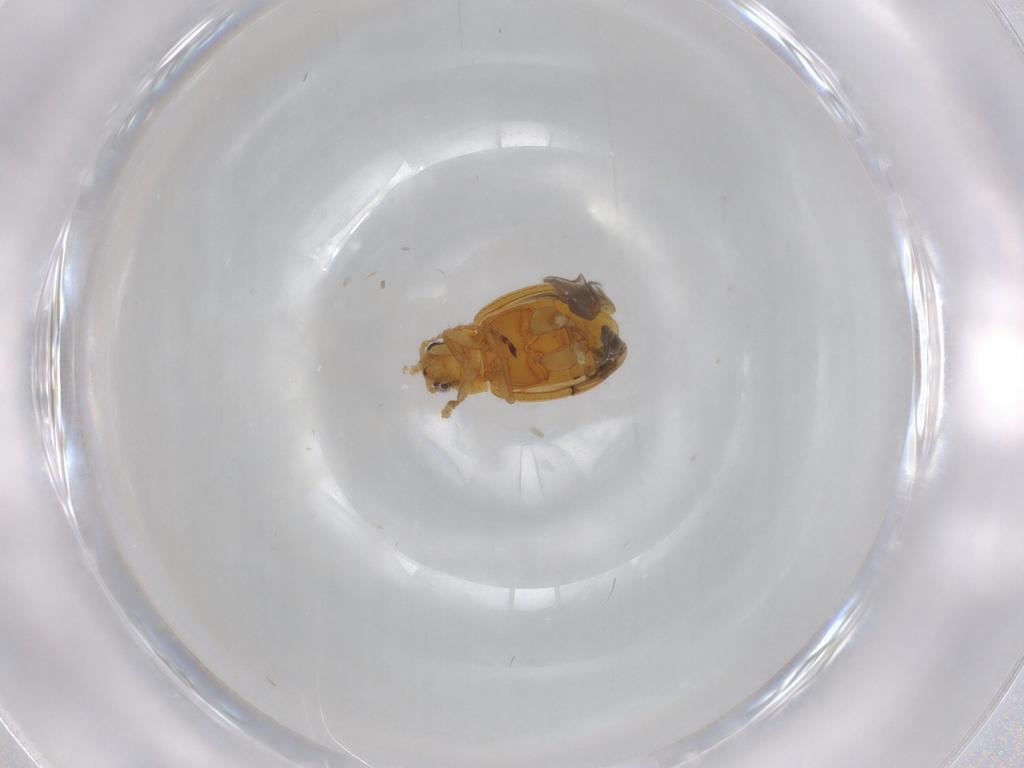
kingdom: Animalia
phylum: Arthropoda
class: Insecta
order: Coleoptera
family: Chrysomelidae
